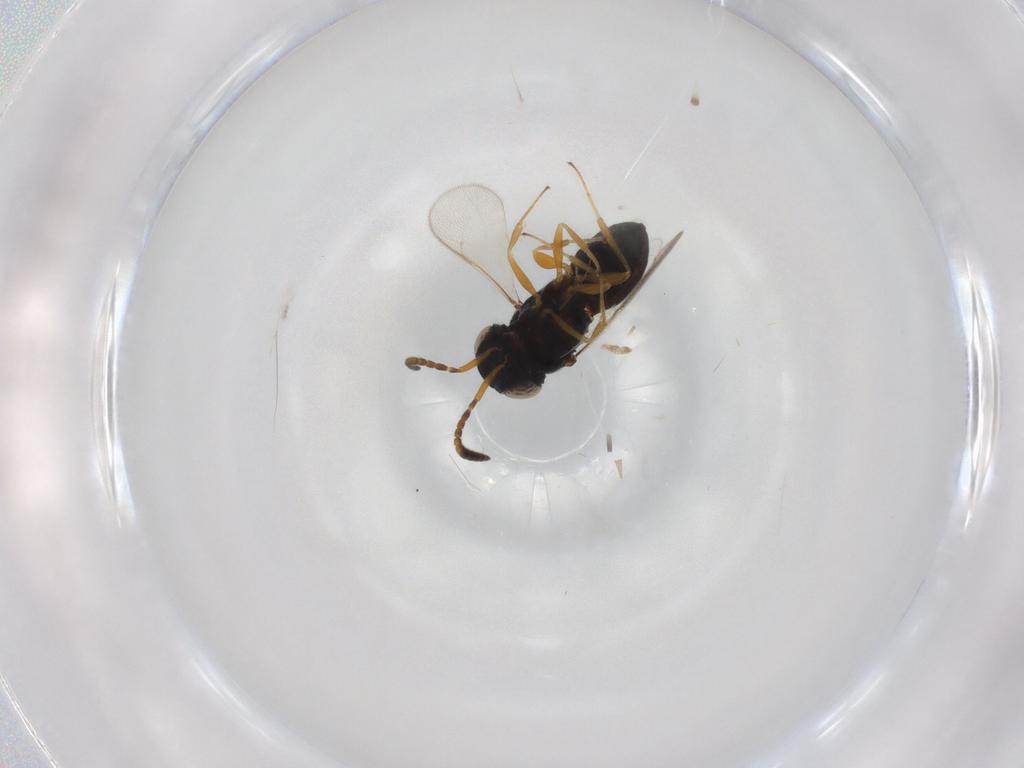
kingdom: Animalia
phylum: Arthropoda
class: Insecta
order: Hymenoptera
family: Scelionidae
